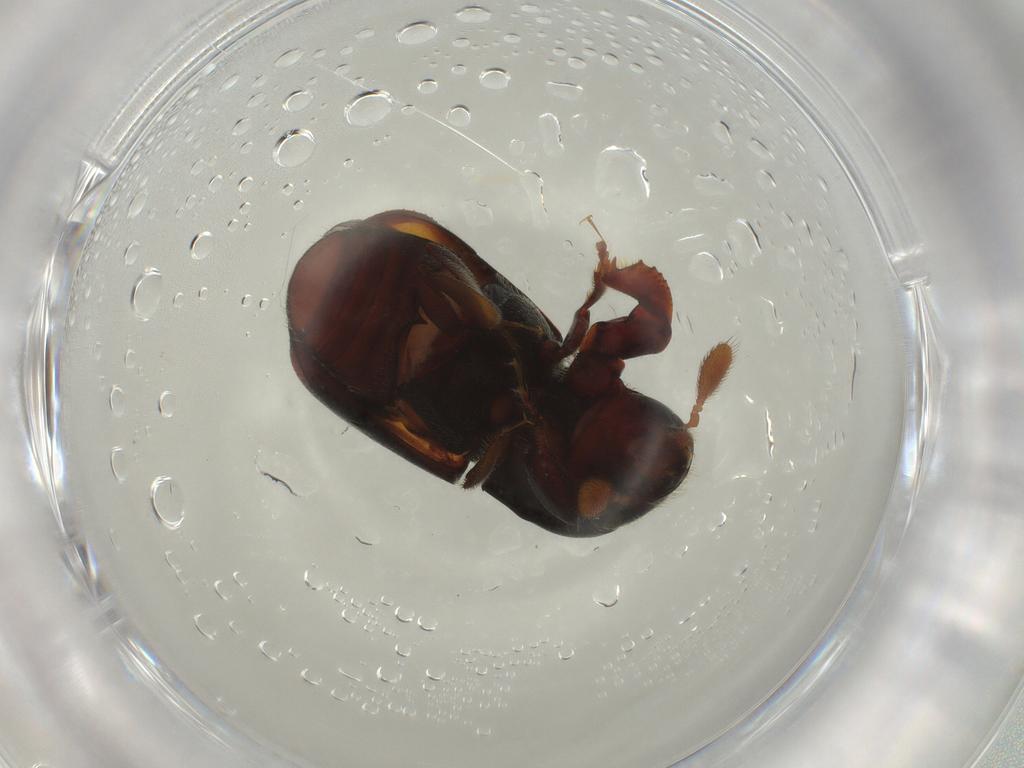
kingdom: Animalia
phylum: Arthropoda
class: Insecta
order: Coleoptera
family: Curculionidae
